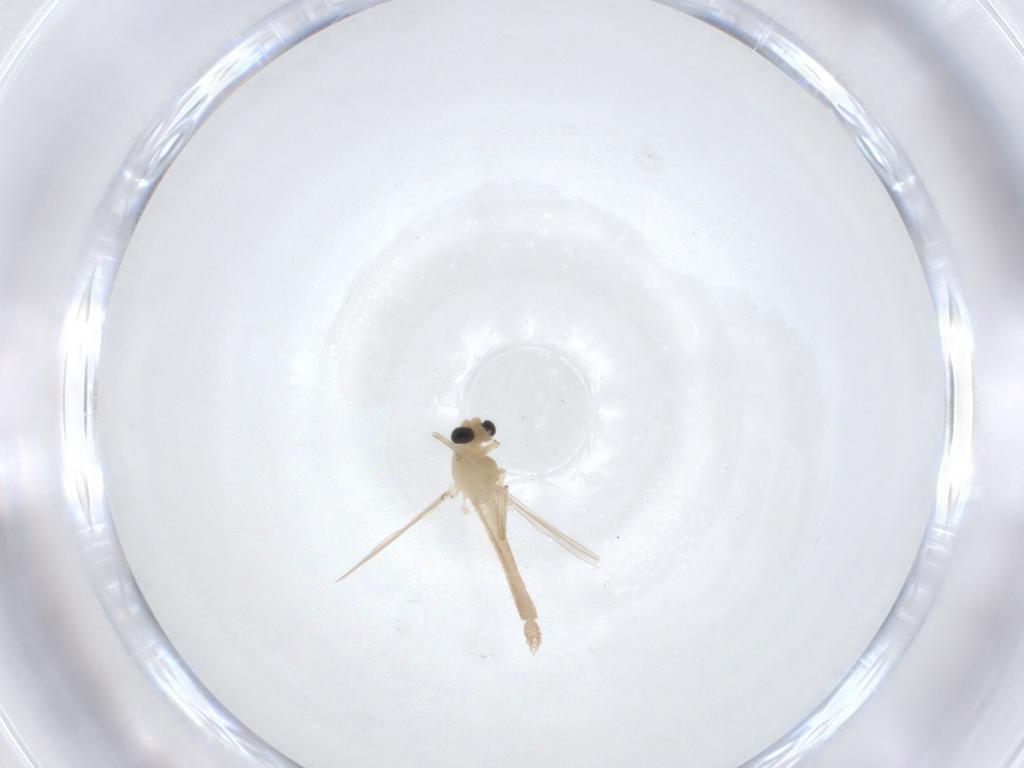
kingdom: Animalia
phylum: Arthropoda
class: Insecta
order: Diptera
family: Chironomidae
